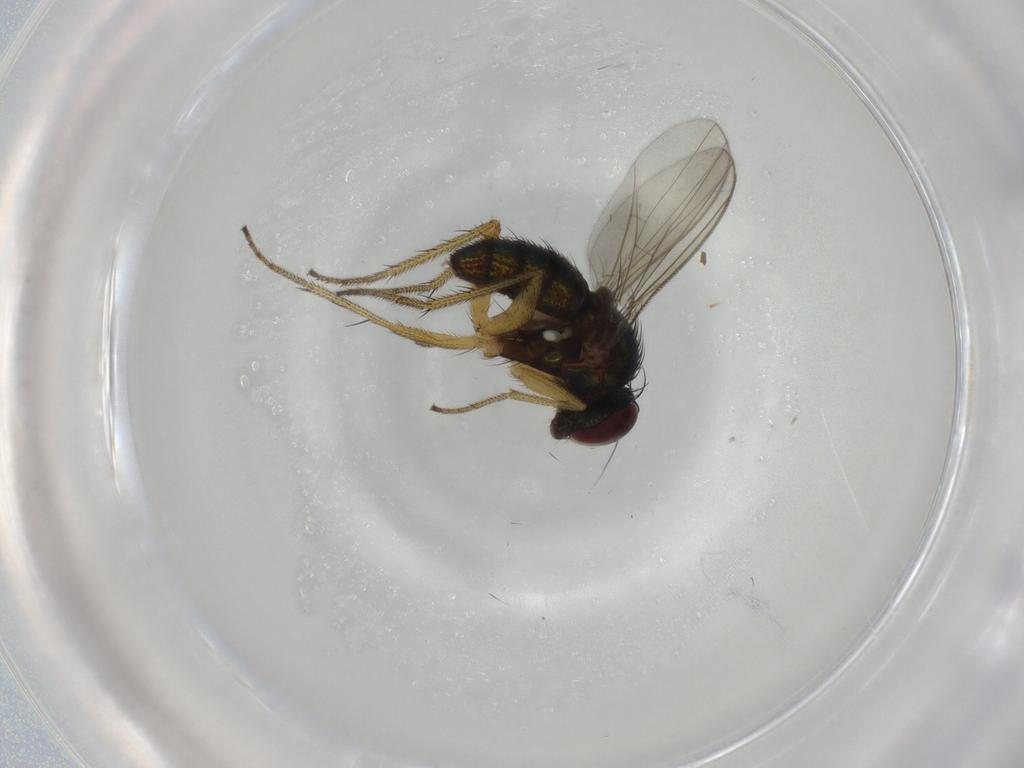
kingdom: Animalia
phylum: Arthropoda
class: Insecta
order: Diptera
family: Dolichopodidae
